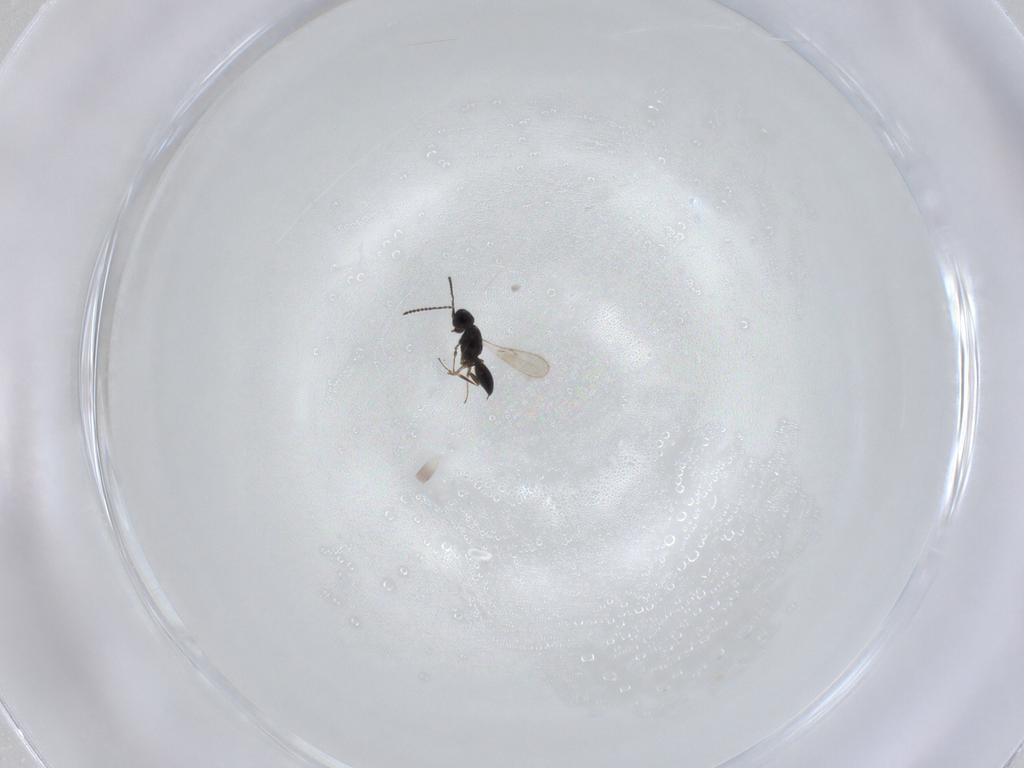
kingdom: Animalia
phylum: Arthropoda
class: Insecta
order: Hymenoptera
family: Scelionidae
